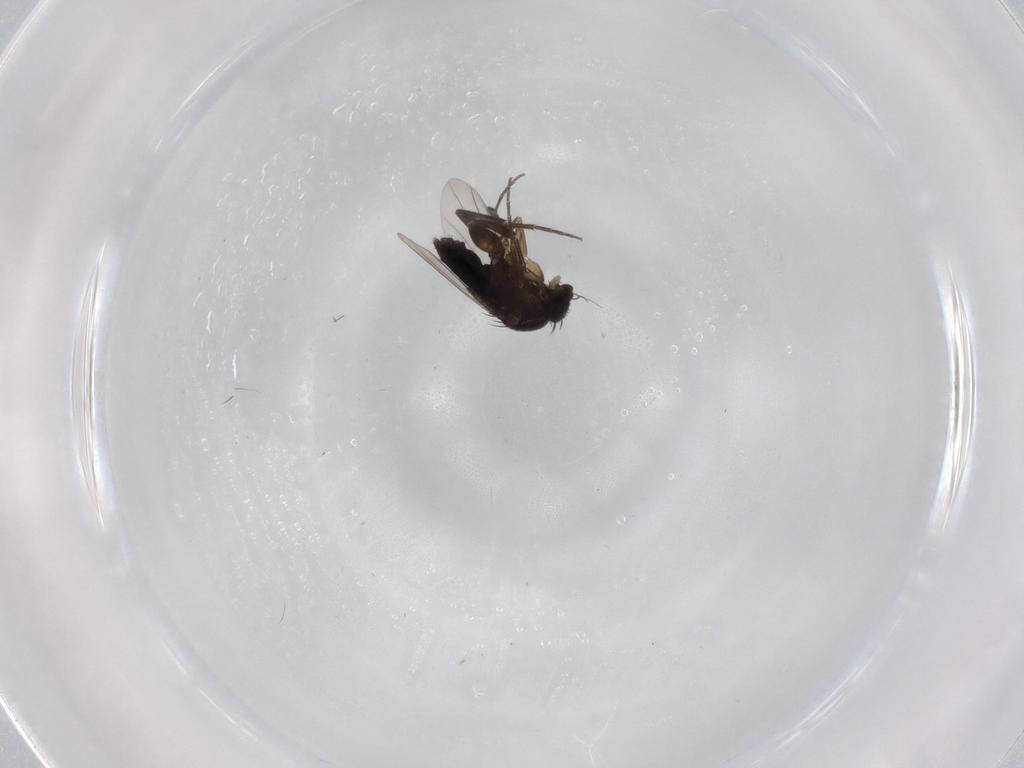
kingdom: Animalia
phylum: Arthropoda
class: Insecta
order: Diptera
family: Phoridae
